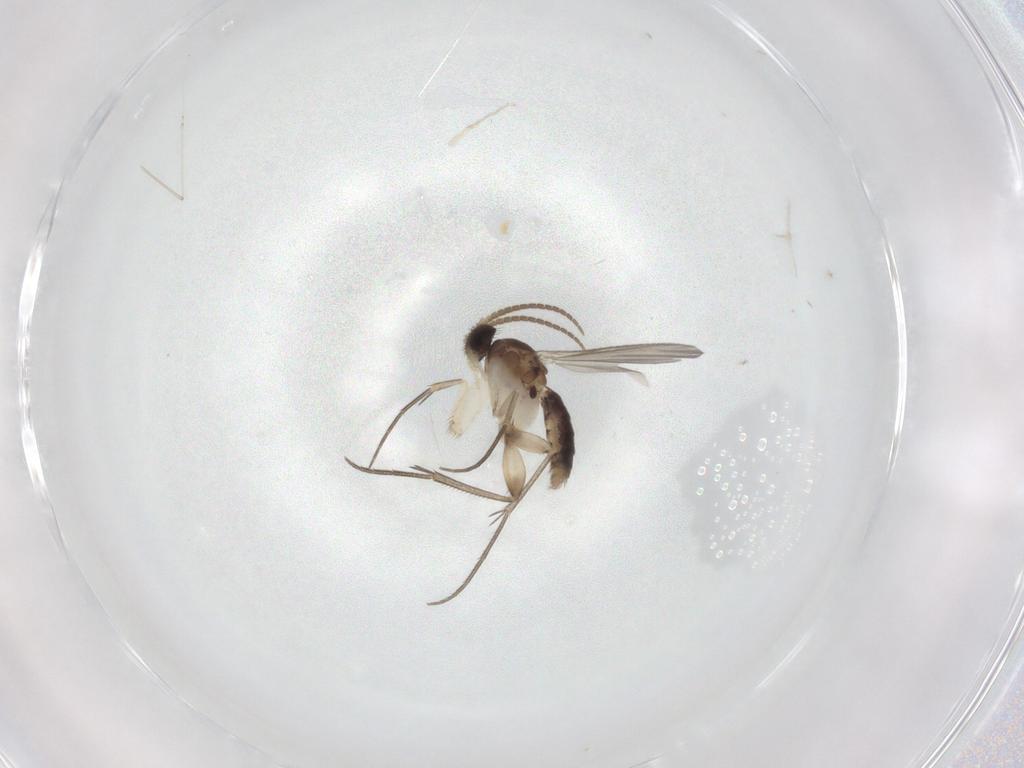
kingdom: Animalia
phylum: Arthropoda
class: Insecta
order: Diptera
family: Mycetophilidae
